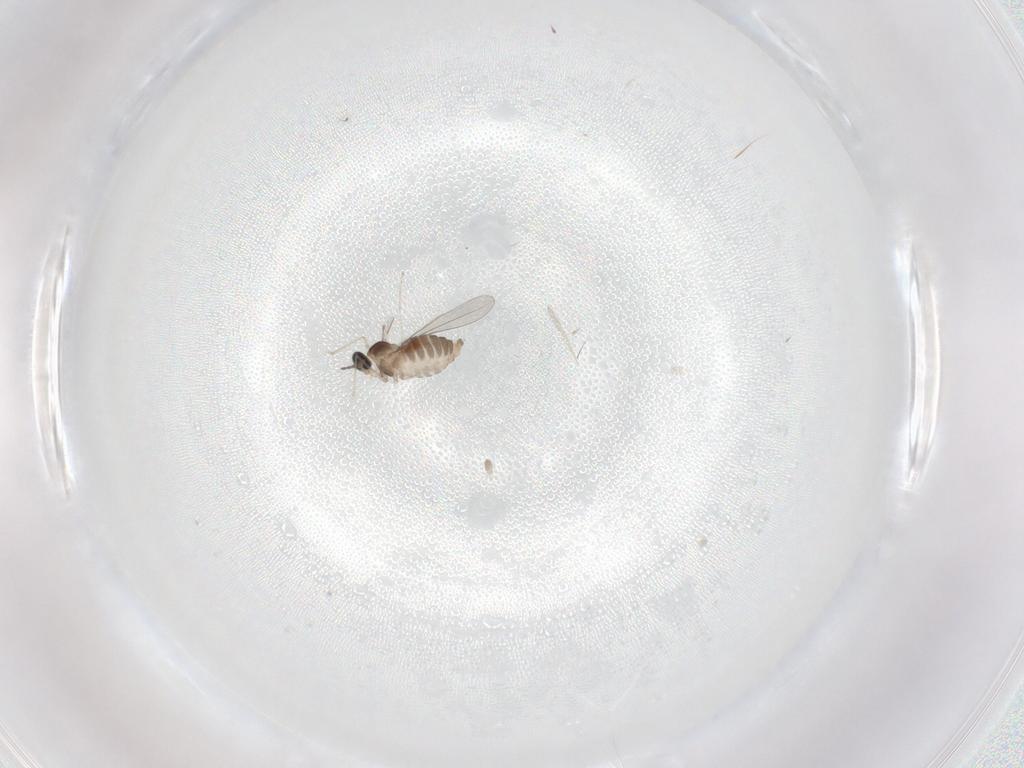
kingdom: Animalia
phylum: Arthropoda
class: Insecta
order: Diptera
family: Cecidomyiidae
